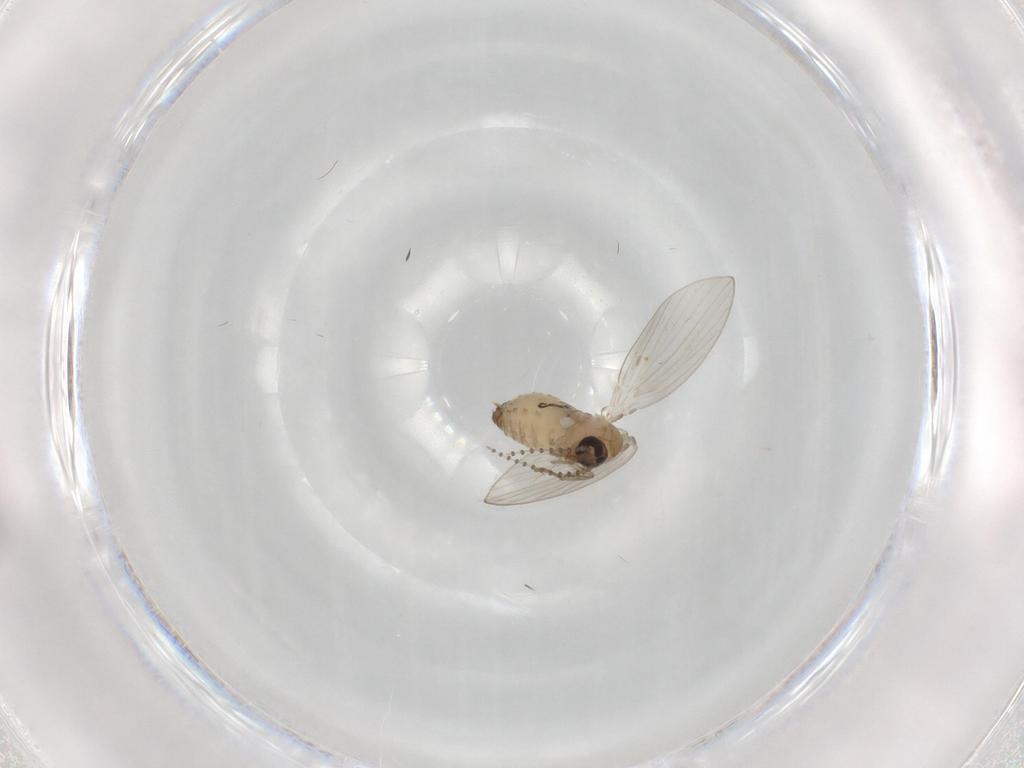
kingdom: Animalia
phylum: Arthropoda
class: Insecta
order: Diptera
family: Psychodidae
